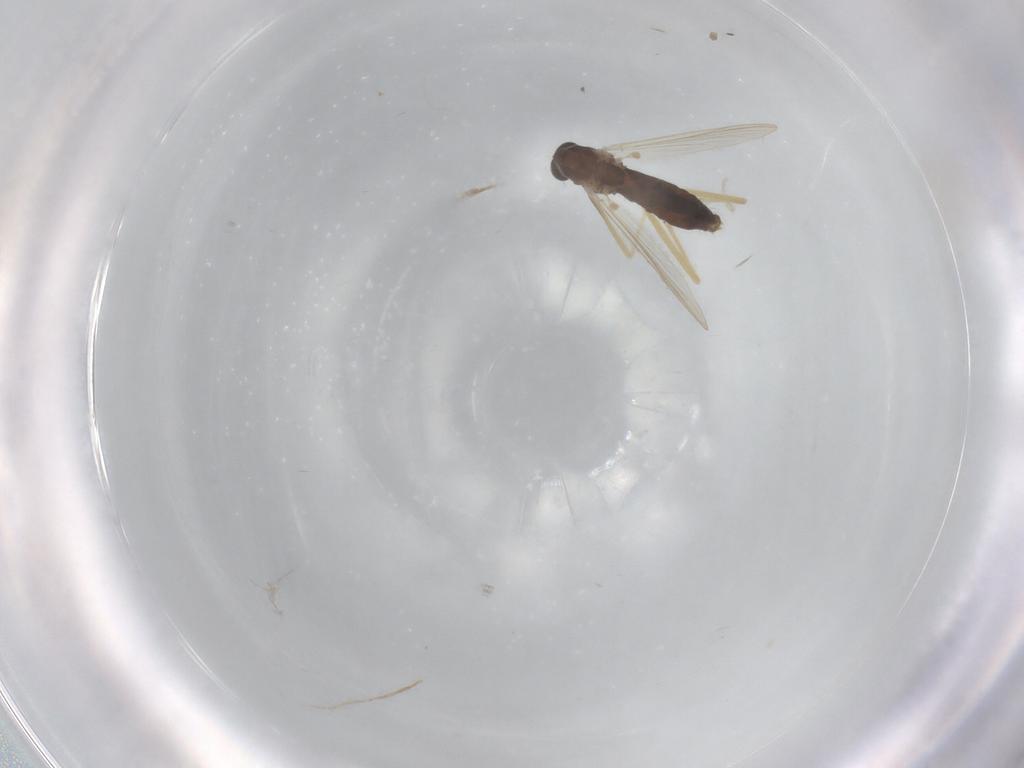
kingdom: Animalia
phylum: Arthropoda
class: Insecta
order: Diptera
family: Chironomidae
